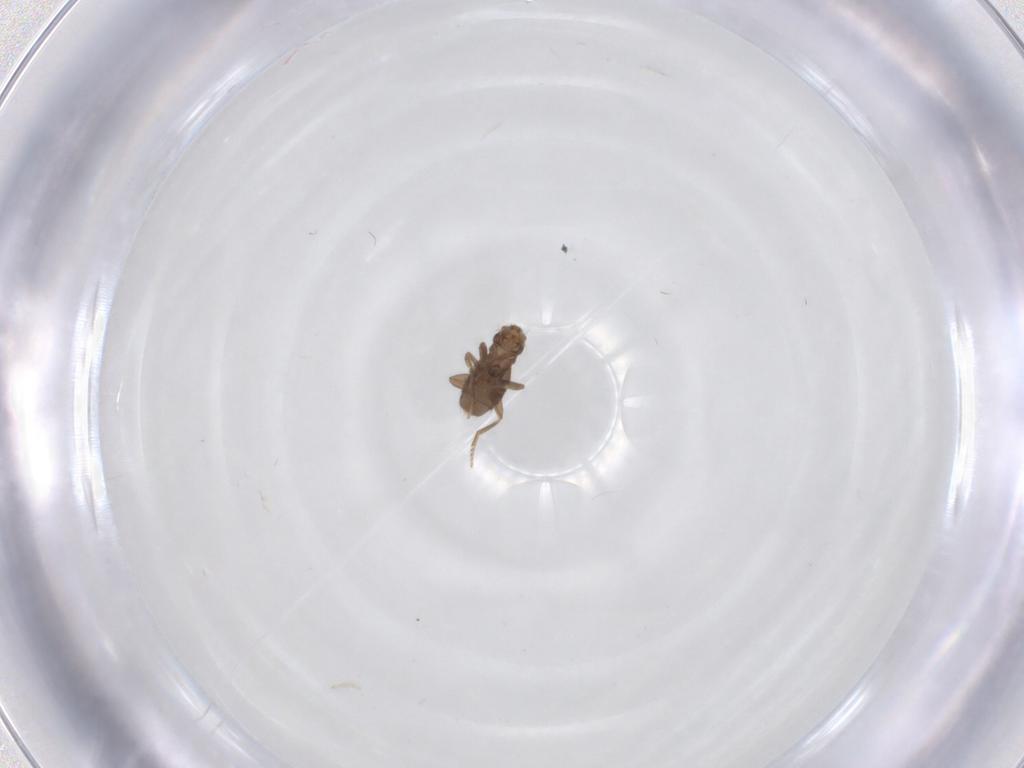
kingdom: Animalia
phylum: Arthropoda
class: Insecta
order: Diptera
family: Phoridae
